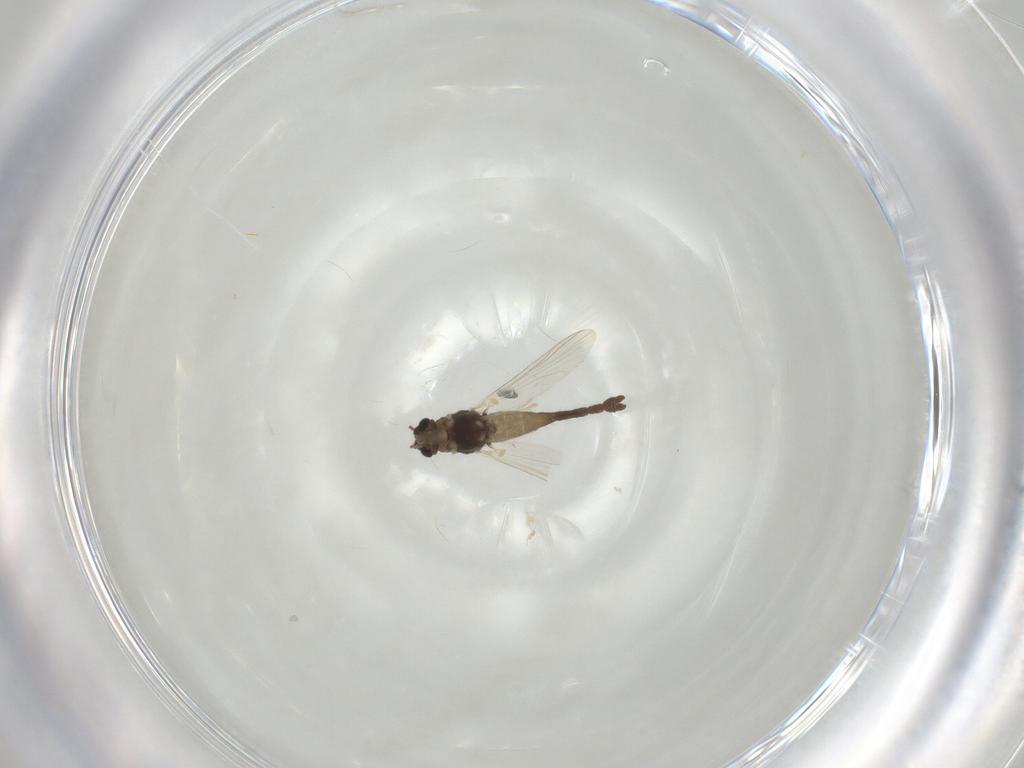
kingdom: Animalia
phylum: Arthropoda
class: Insecta
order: Diptera
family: Chironomidae
